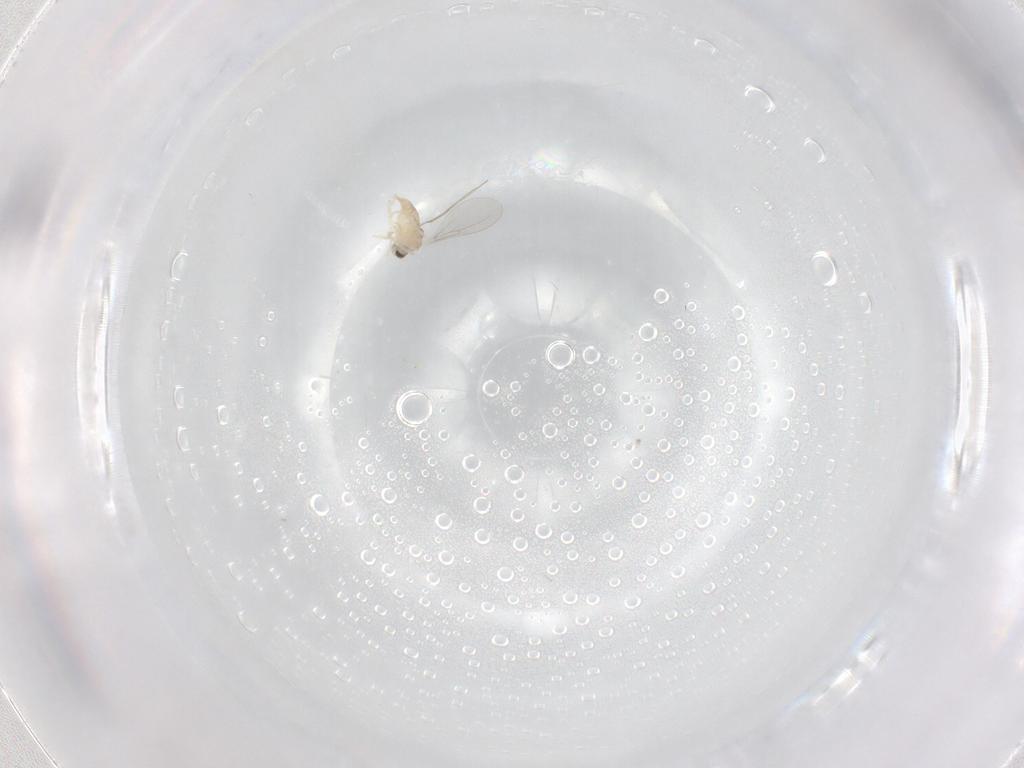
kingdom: Animalia
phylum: Arthropoda
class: Insecta
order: Diptera
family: Cecidomyiidae
